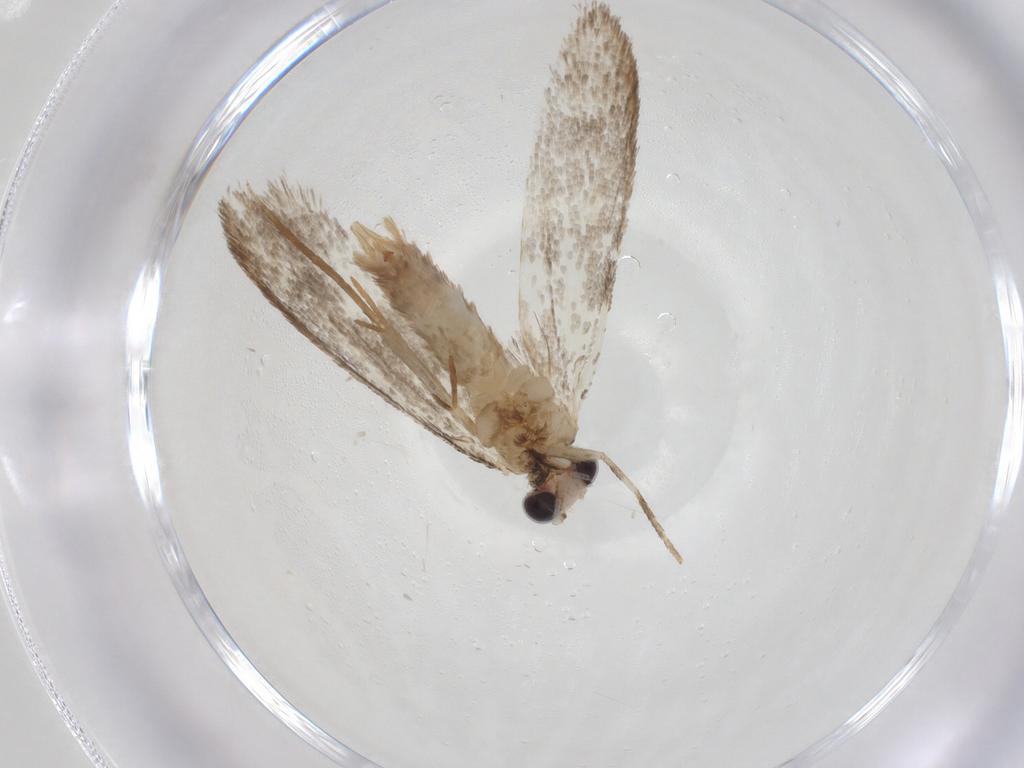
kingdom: Animalia
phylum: Arthropoda
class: Insecta
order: Lepidoptera
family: Tineidae
